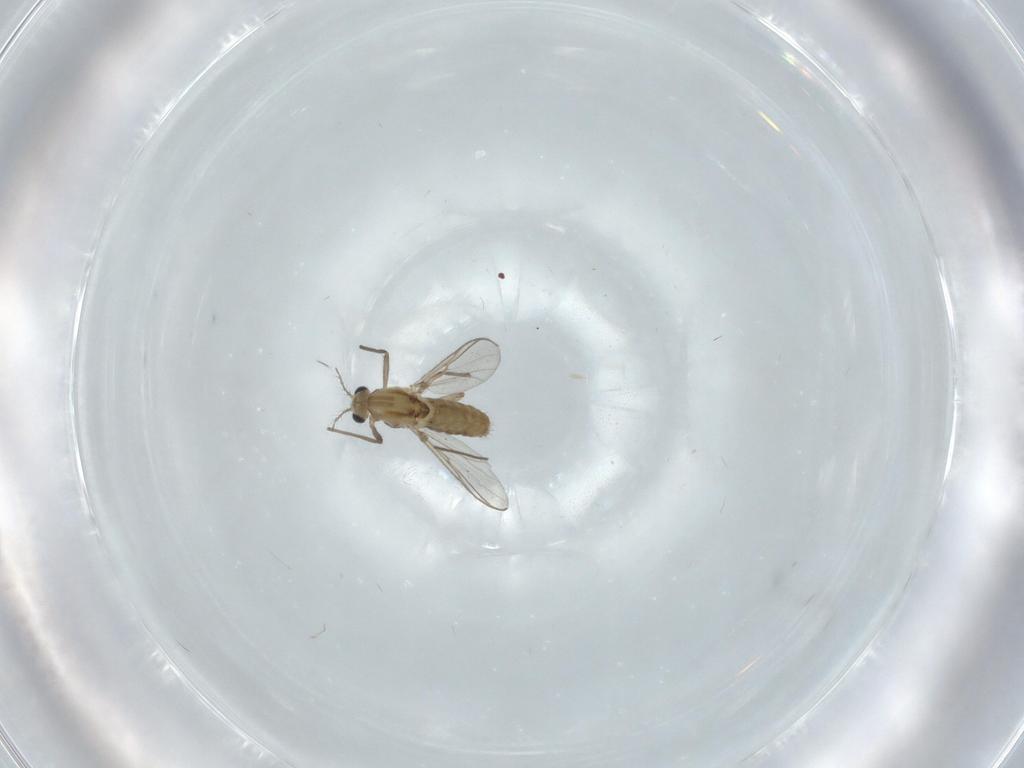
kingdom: Animalia
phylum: Arthropoda
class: Insecta
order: Diptera
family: Chironomidae
